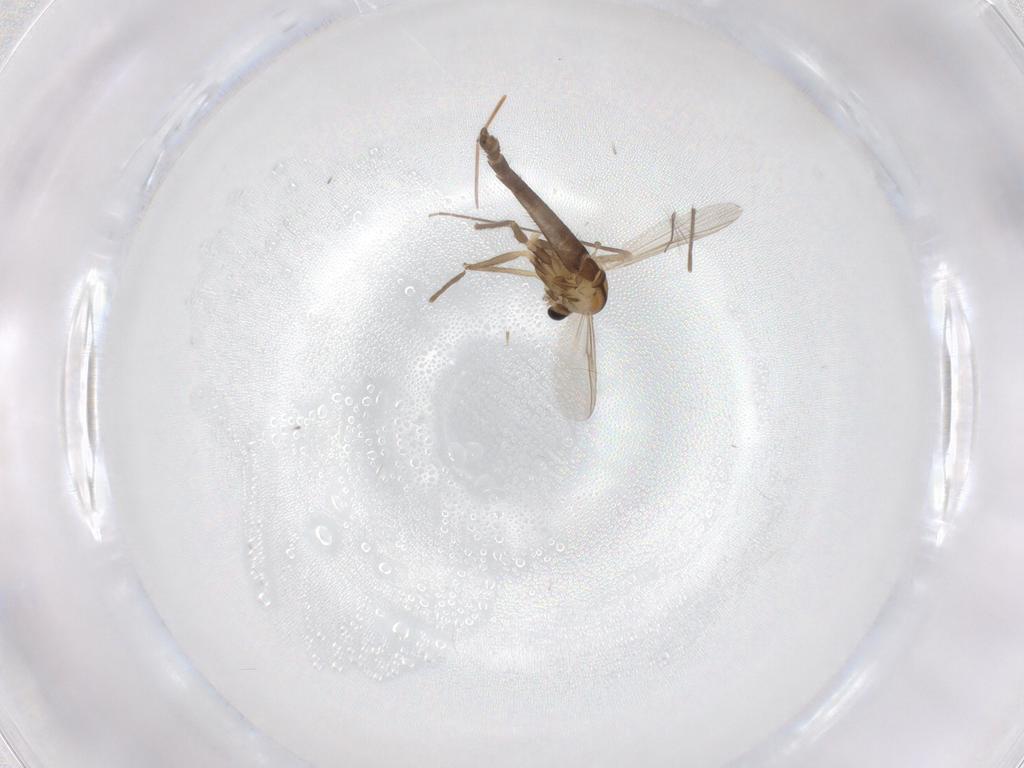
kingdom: Animalia
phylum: Arthropoda
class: Insecta
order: Diptera
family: Chironomidae
